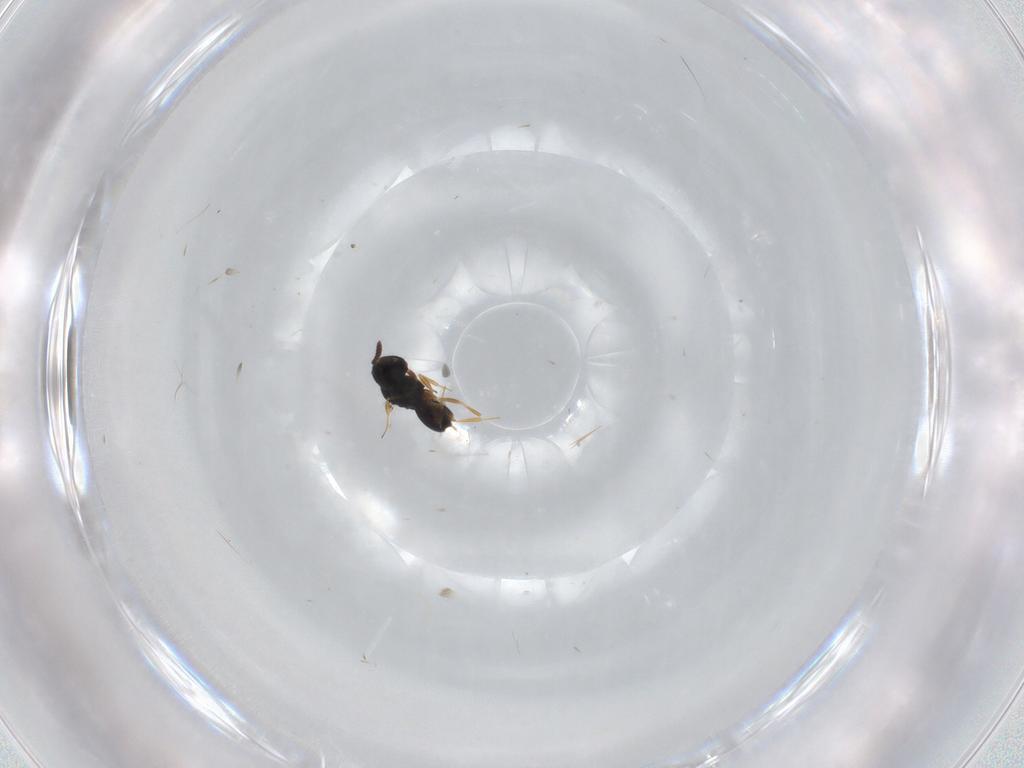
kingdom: Animalia
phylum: Arthropoda
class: Insecta
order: Hymenoptera
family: Scelionidae
